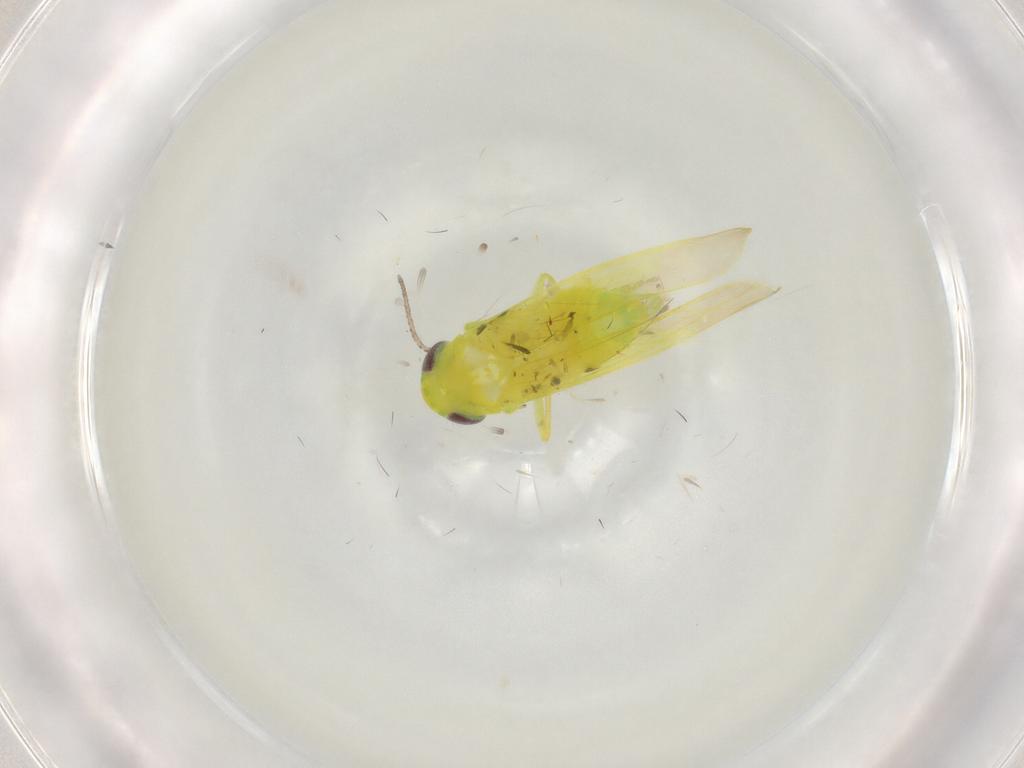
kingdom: Animalia
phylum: Arthropoda
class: Insecta
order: Hemiptera
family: Cicadellidae
